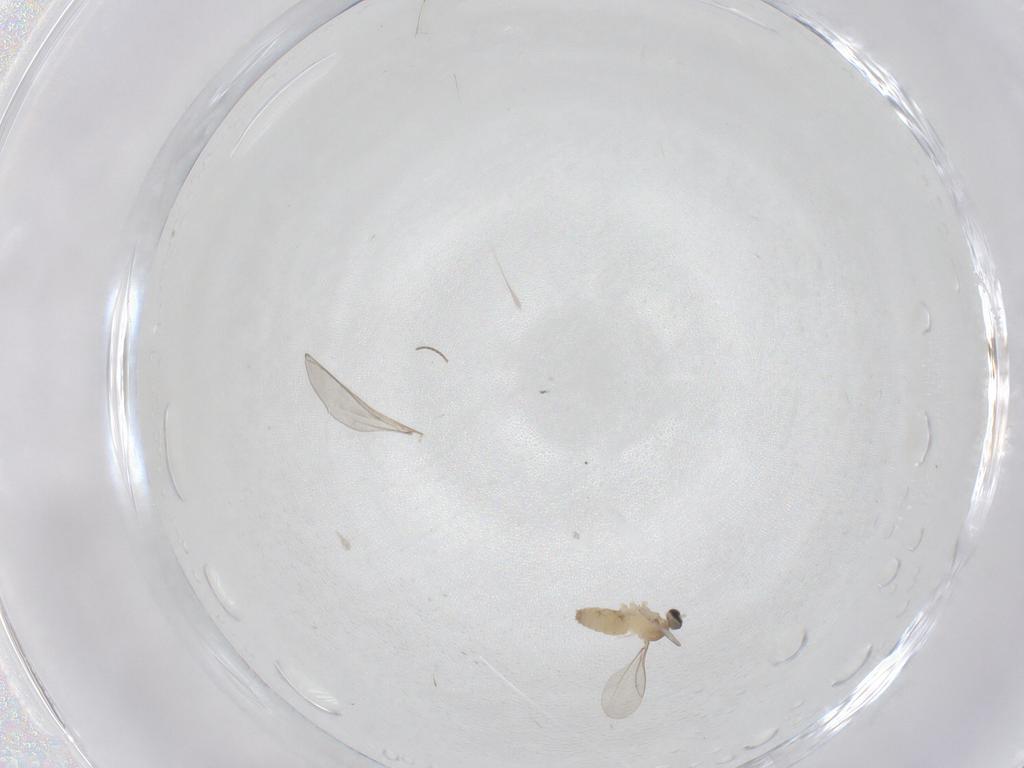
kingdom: Animalia
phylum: Arthropoda
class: Insecta
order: Diptera
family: Cecidomyiidae
